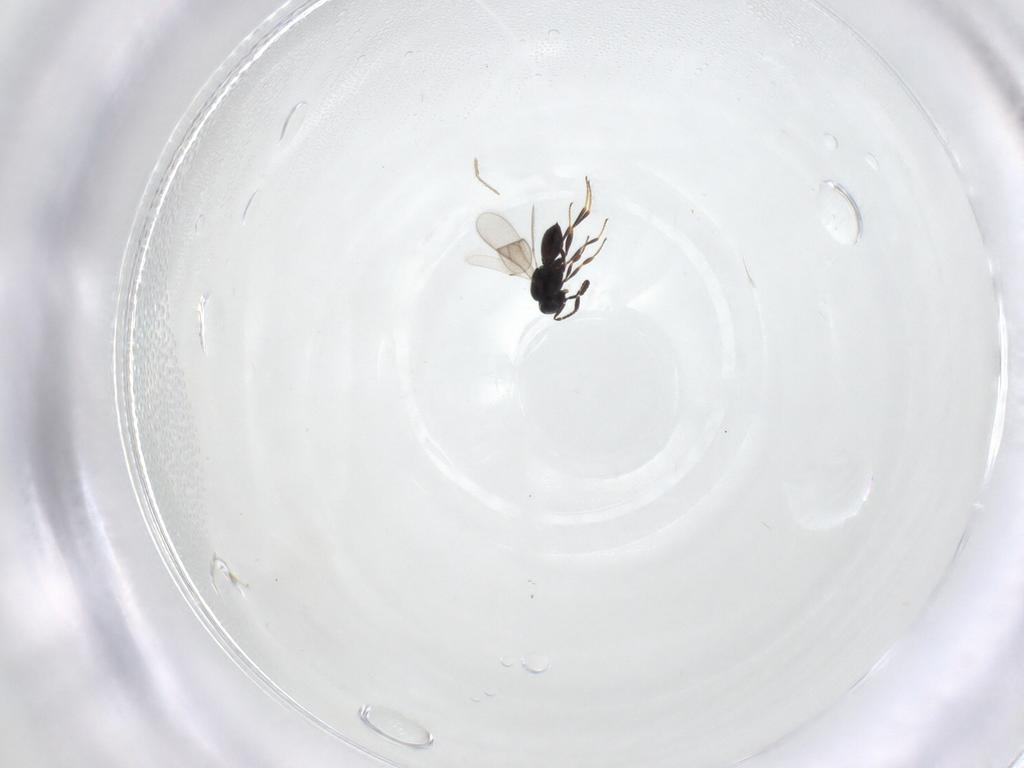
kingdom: Animalia
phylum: Arthropoda
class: Insecta
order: Hymenoptera
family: Scelionidae
